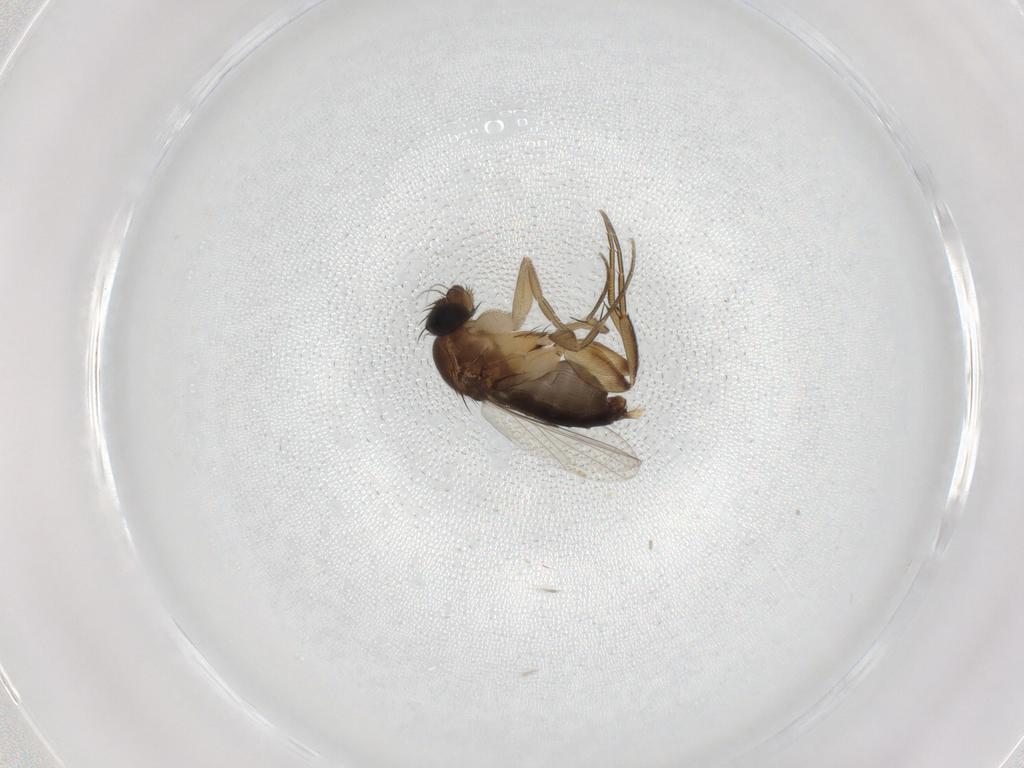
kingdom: Animalia
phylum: Arthropoda
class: Insecta
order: Diptera
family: Phoridae
